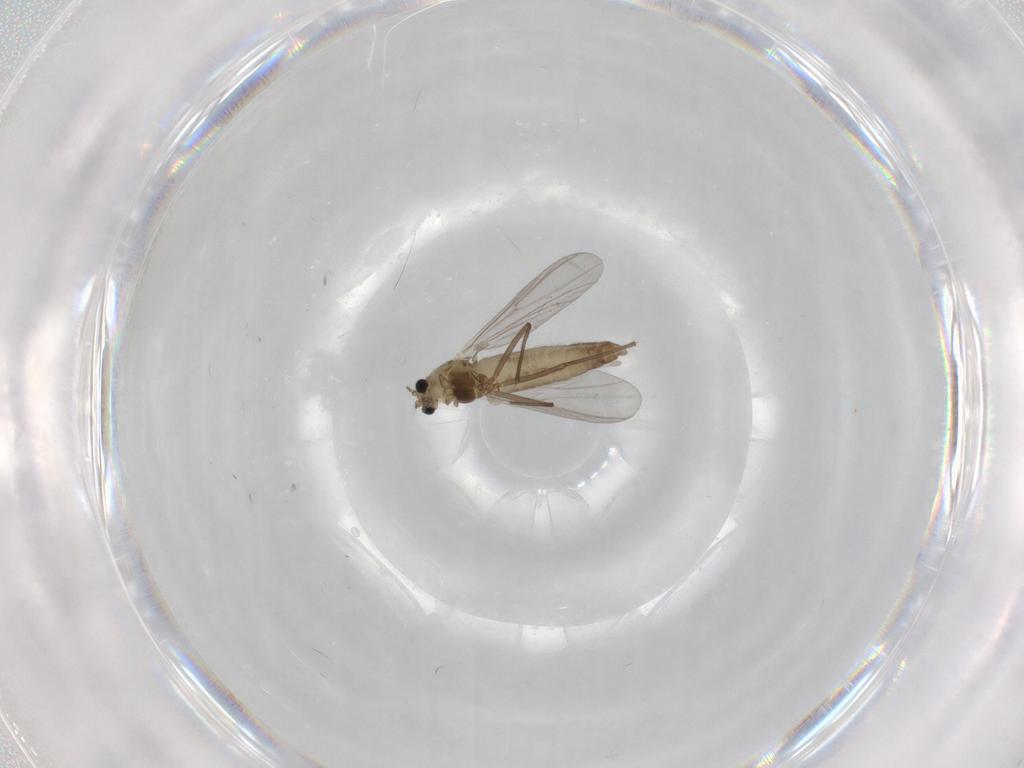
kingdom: Animalia
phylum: Arthropoda
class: Insecta
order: Diptera
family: Chironomidae
